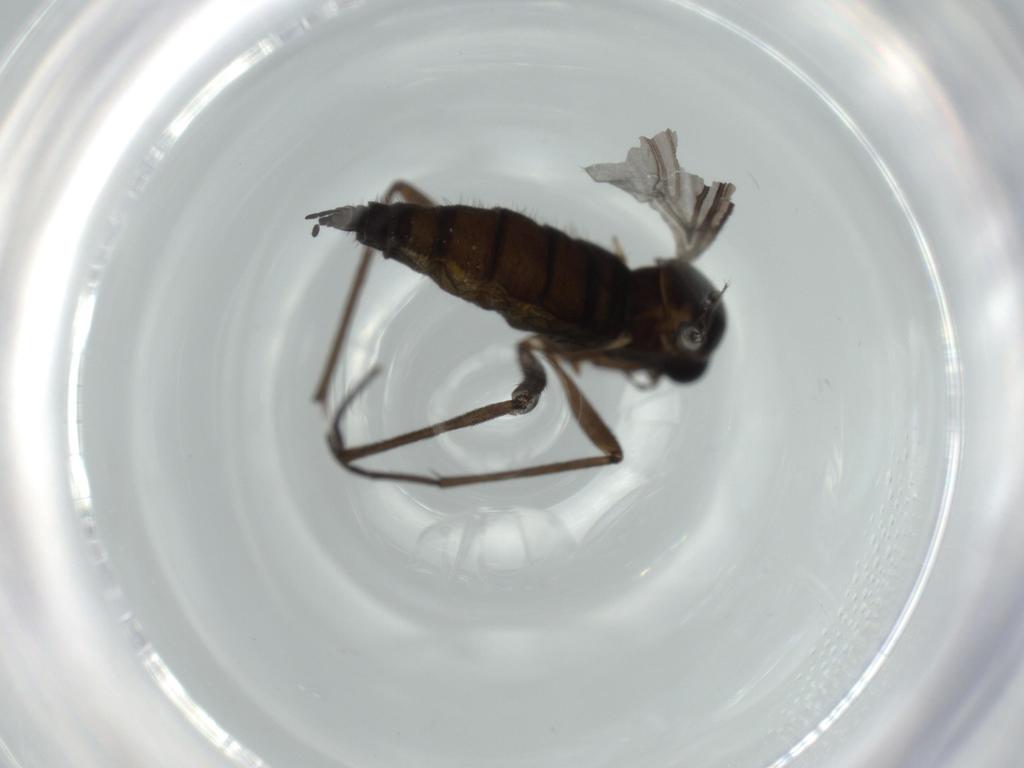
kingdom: Animalia
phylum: Arthropoda
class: Insecta
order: Diptera
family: Sciaridae
